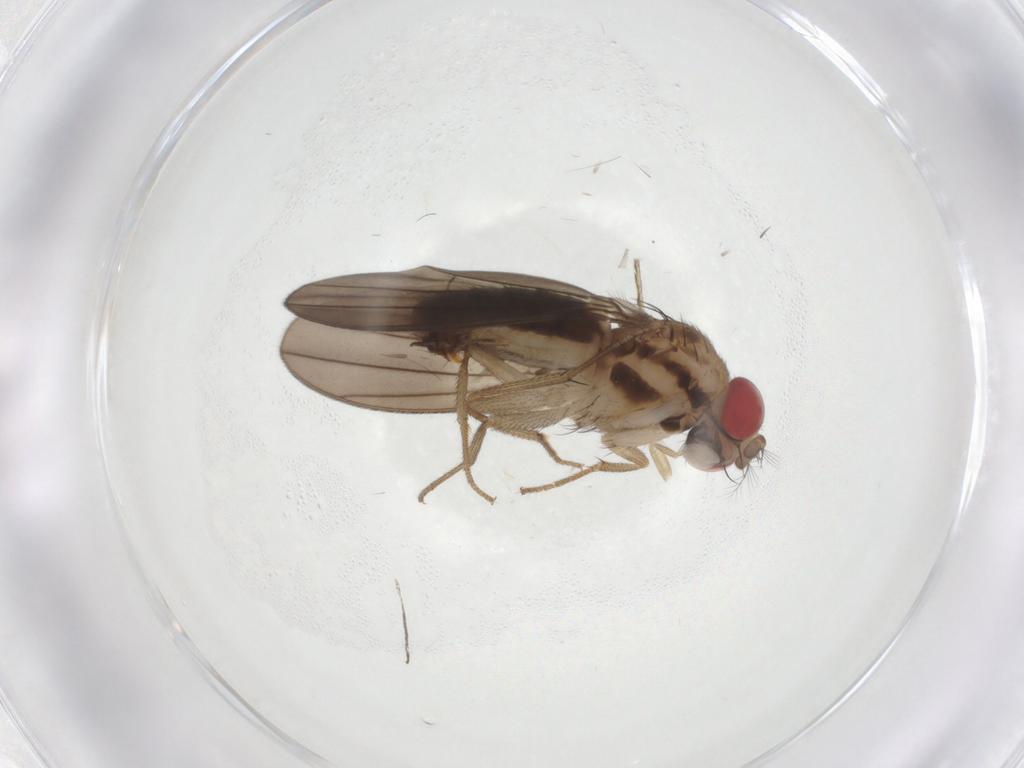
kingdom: Animalia
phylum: Arthropoda
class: Insecta
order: Diptera
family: Drosophilidae
